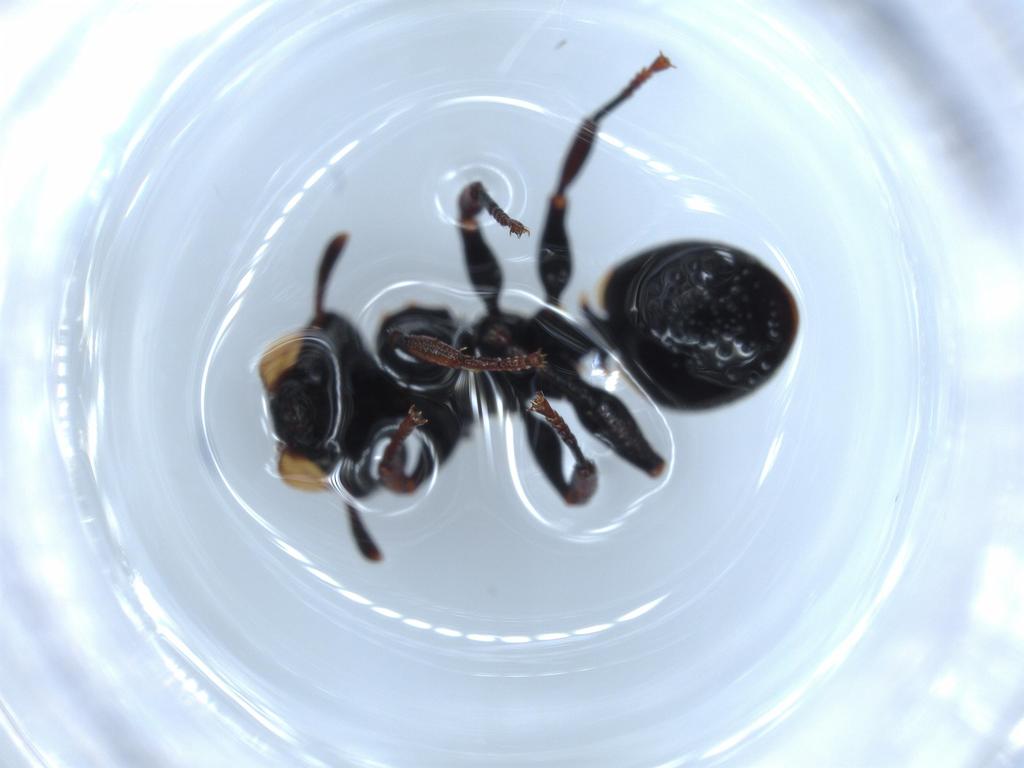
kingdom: Animalia
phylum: Arthropoda
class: Insecta
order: Hymenoptera
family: Formicidae
